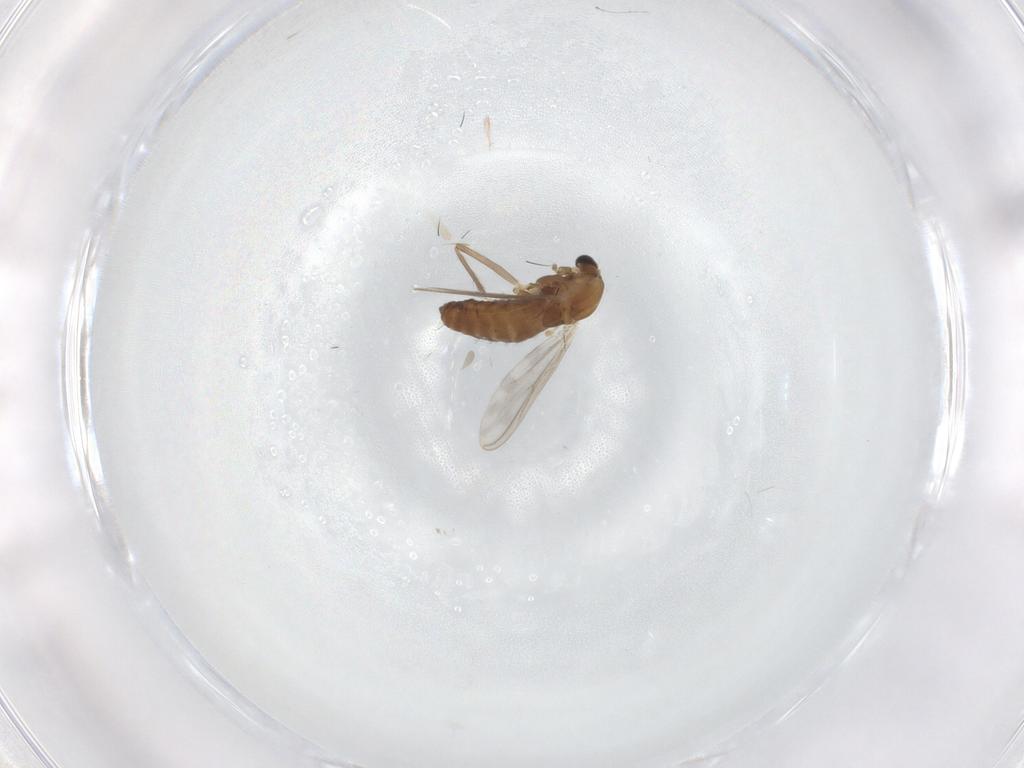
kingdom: Animalia
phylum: Arthropoda
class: Insecta
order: Diptera
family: Chironomidae
